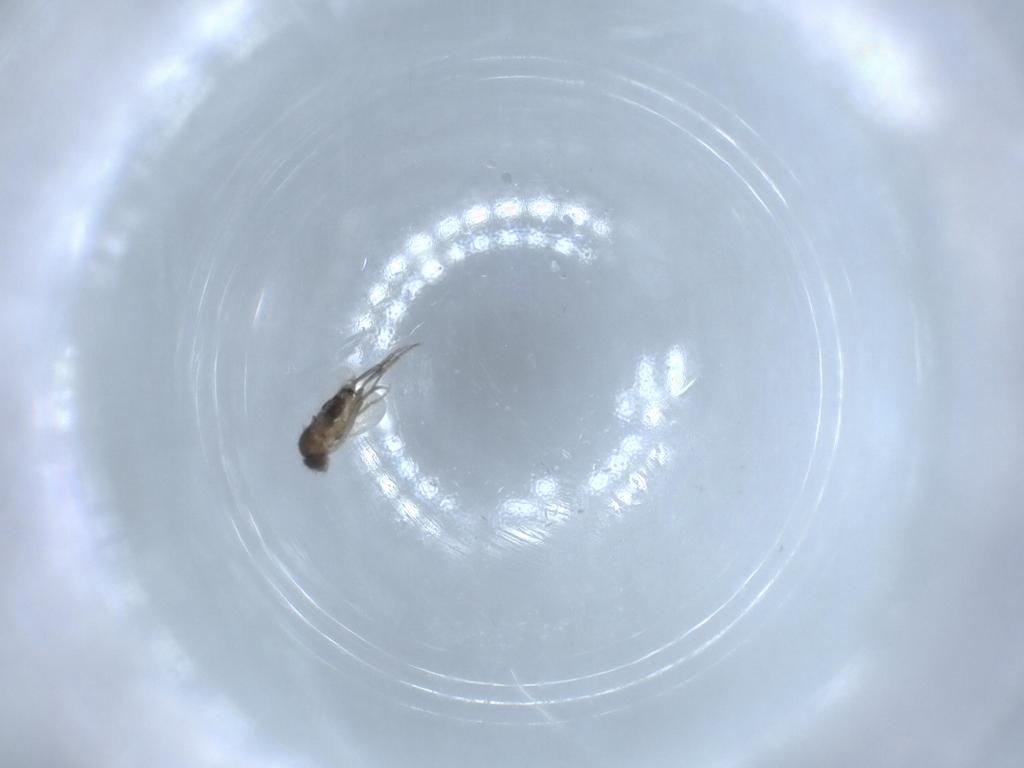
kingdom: Animalia
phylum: Arthropoda
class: Insecta
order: Diptera
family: Phoridae
